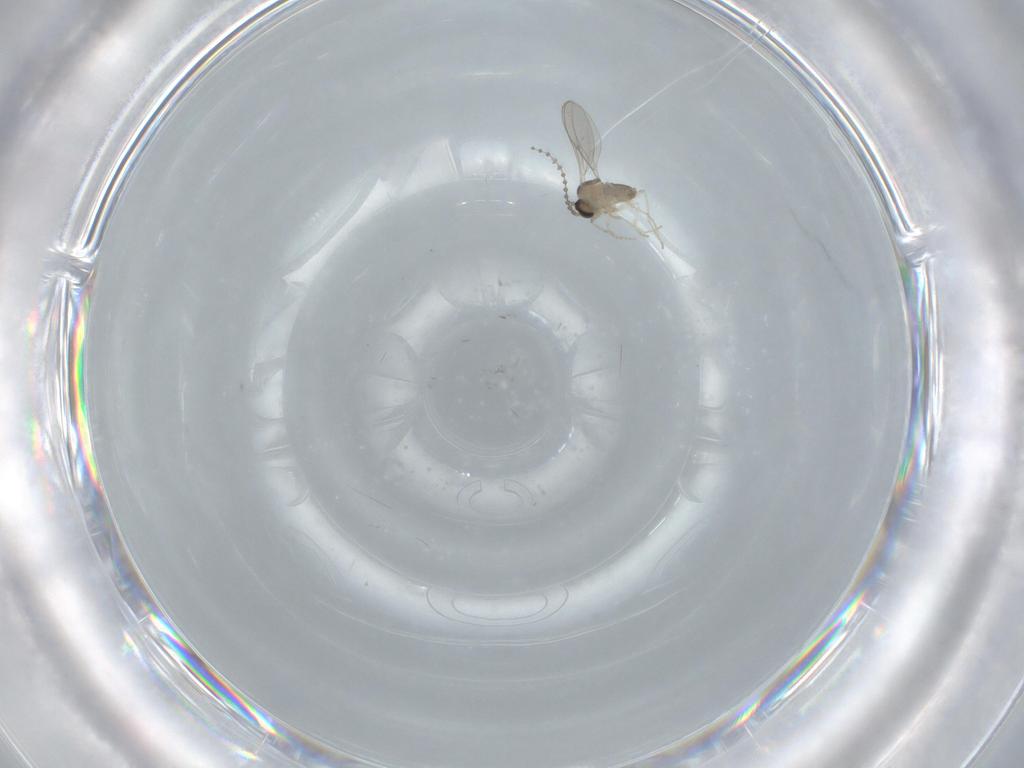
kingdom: Animalia
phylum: Arthropoda
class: Insecta
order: Diptera
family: Cecidomyiidae
